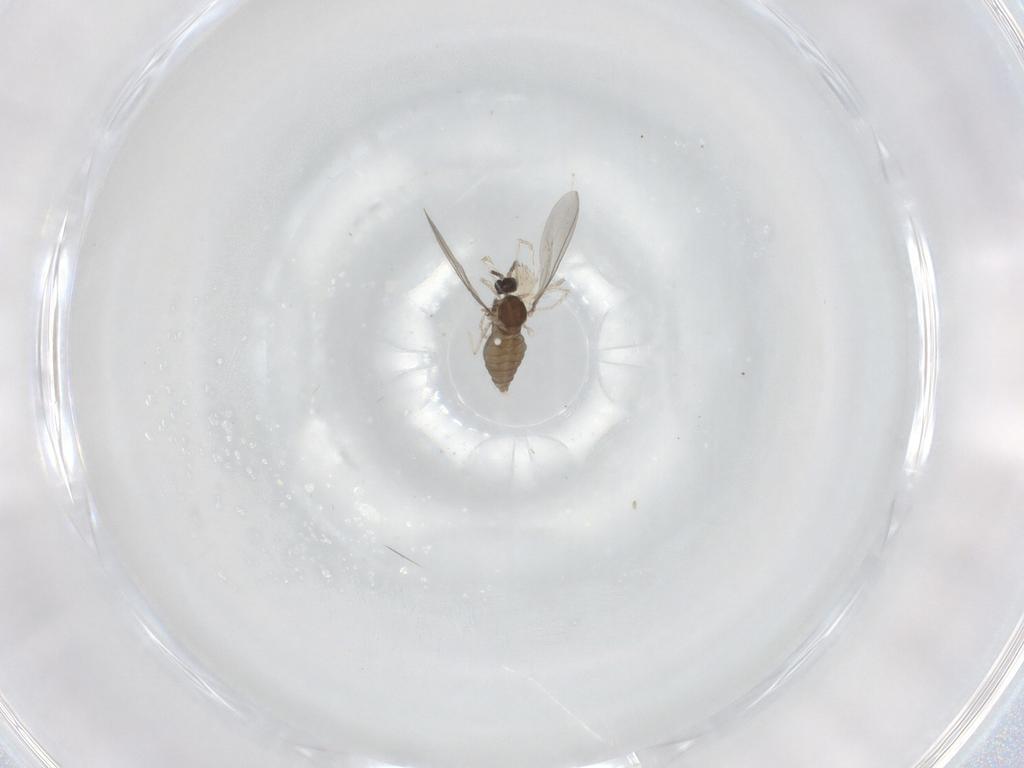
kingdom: Animalia
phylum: Arthropoda
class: Insecta
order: Diptera
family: Cecidomyiidae
